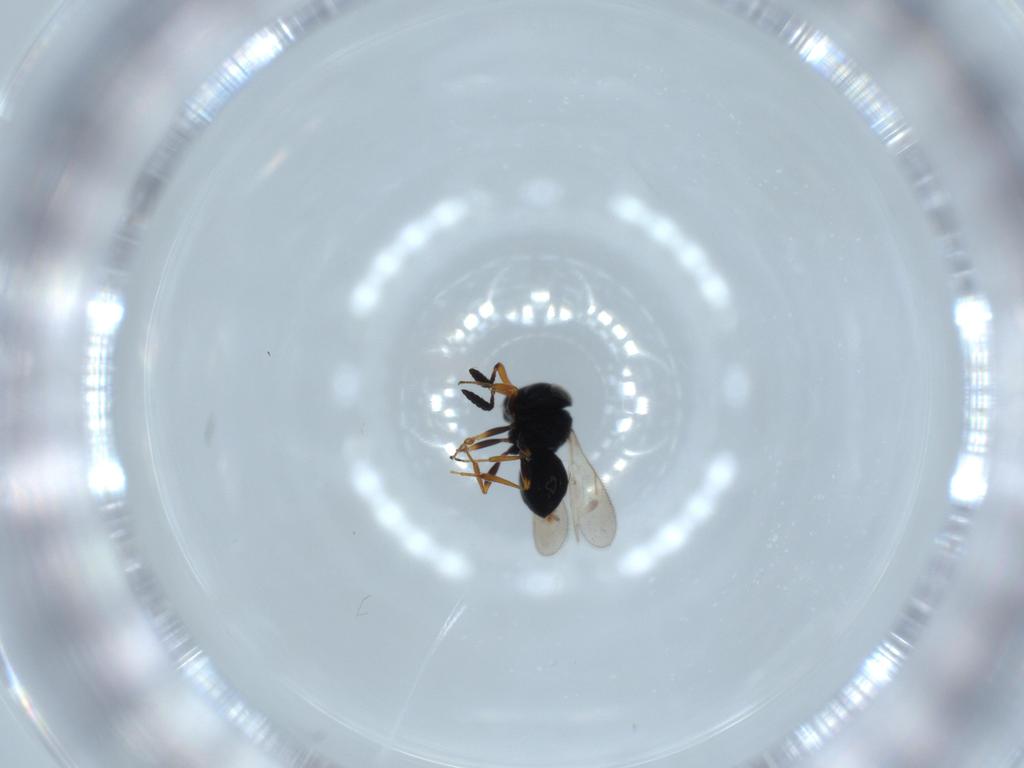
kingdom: Animalia
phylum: Arthropoda
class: Insecta
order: Hymenoptera
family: Scelionidae
